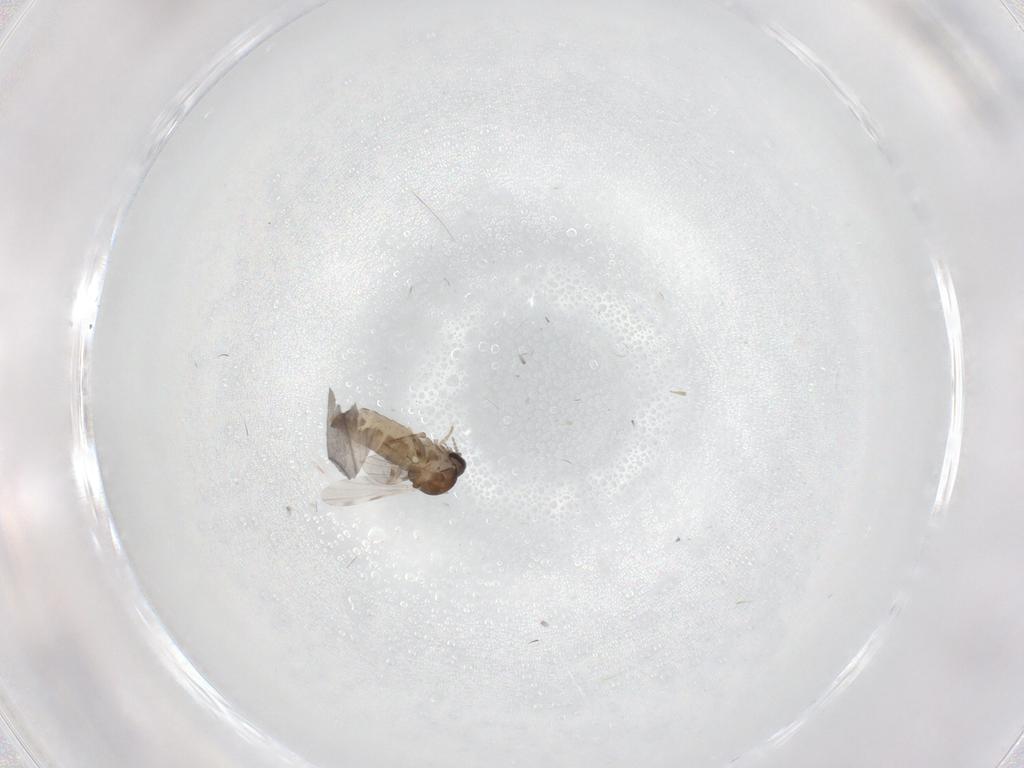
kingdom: Animalia
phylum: Arthropoda
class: Insecta
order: Diptera
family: Ceratopogonidae
